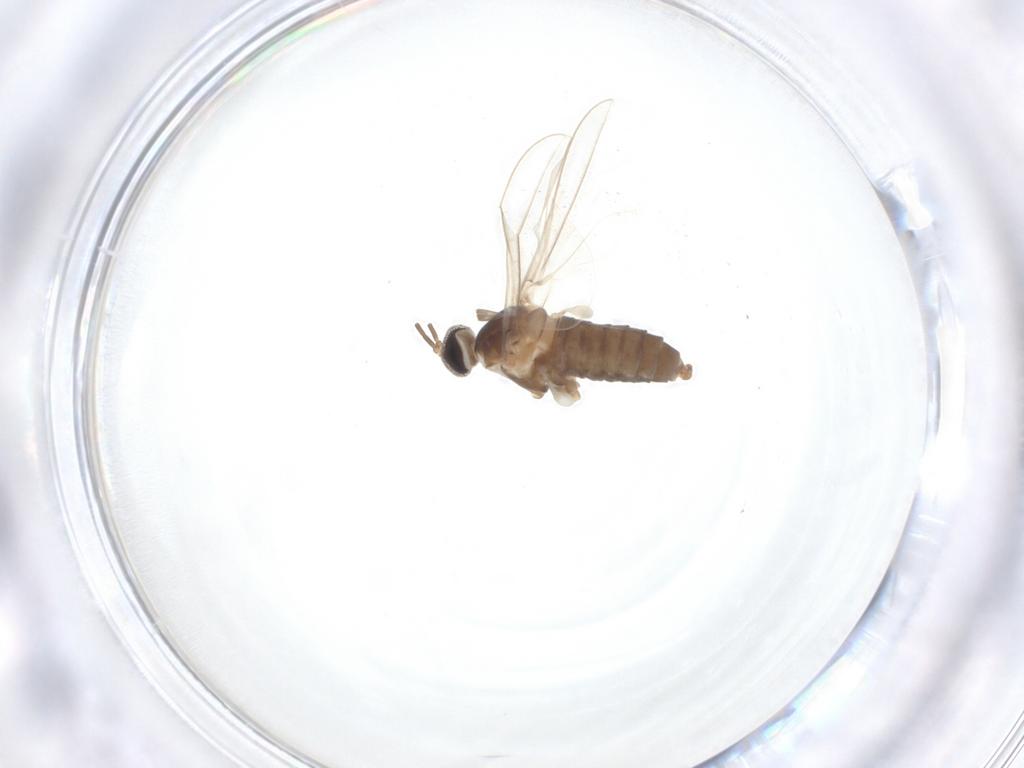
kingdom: Animalia
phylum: Arthropoda
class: Insecta
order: Diptera
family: Cecidomyiidae
